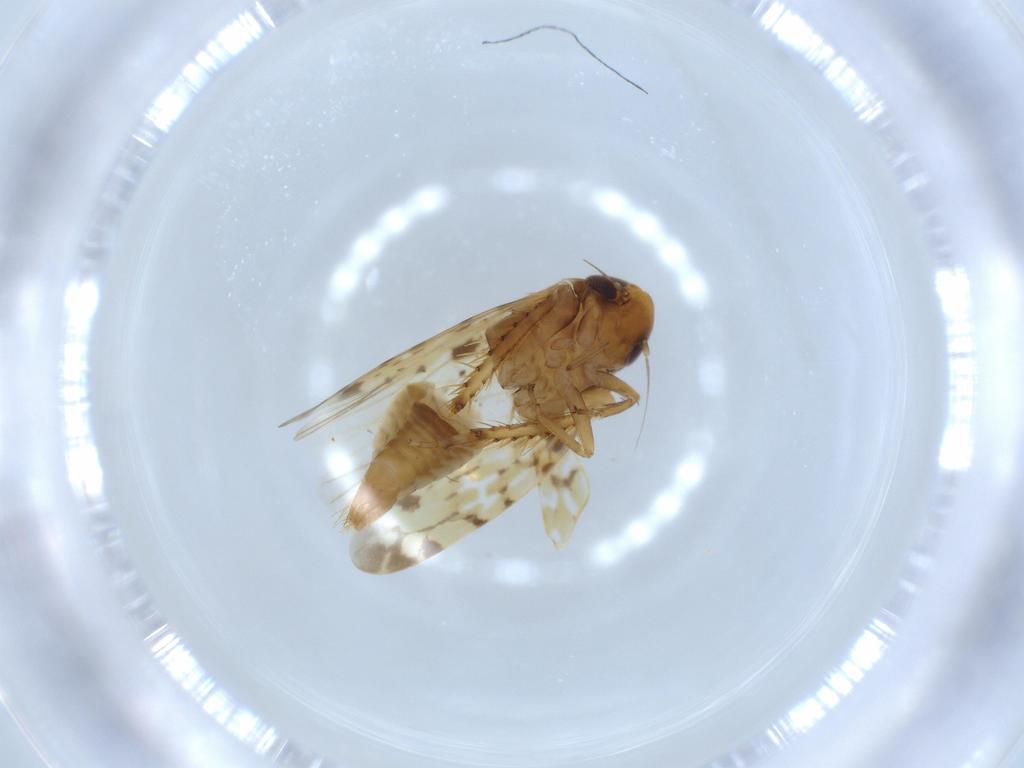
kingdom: Animalia
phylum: Arthropoda
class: Insecta
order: Hemiptera
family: Cicadellidae
